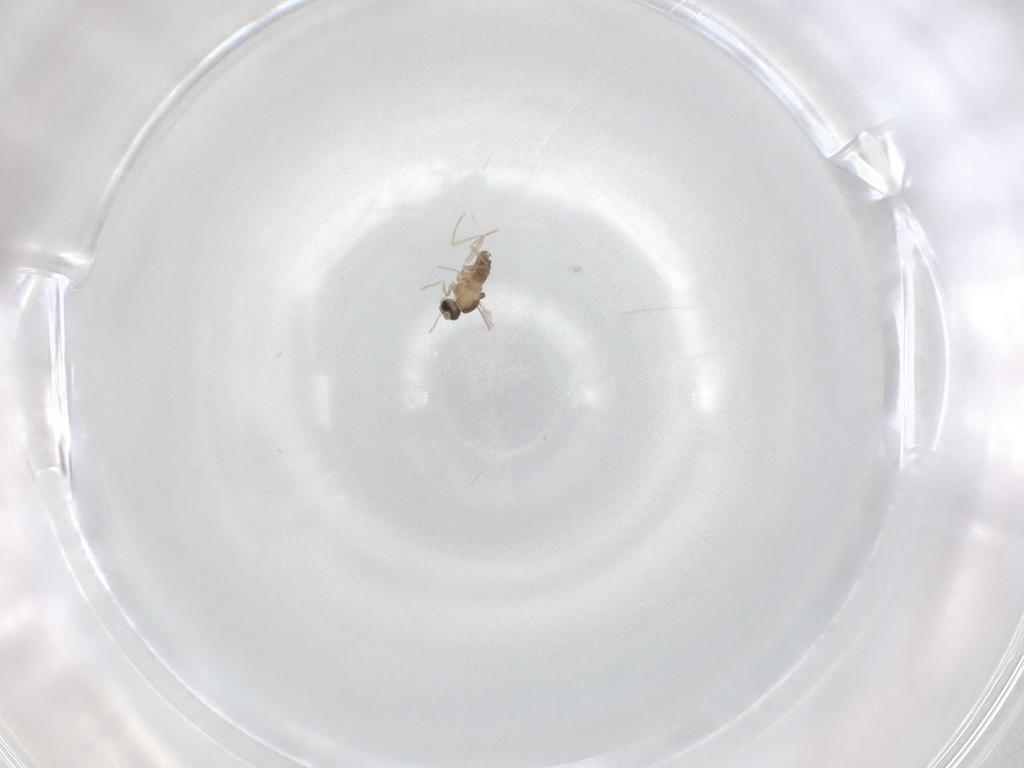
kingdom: Animalia
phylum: Arthropoda
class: Insecta
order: Diptera
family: Cecidomyiidae
